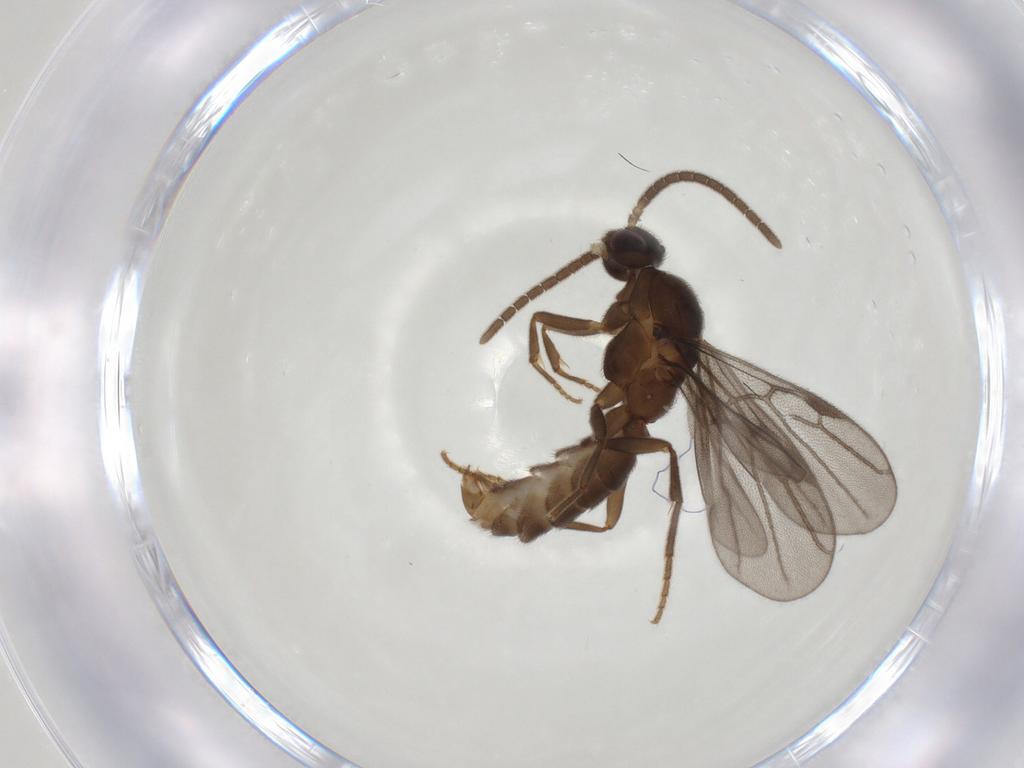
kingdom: Animalia
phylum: Arthropoda
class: Insecta
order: Hymenoptera
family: Formicidae
